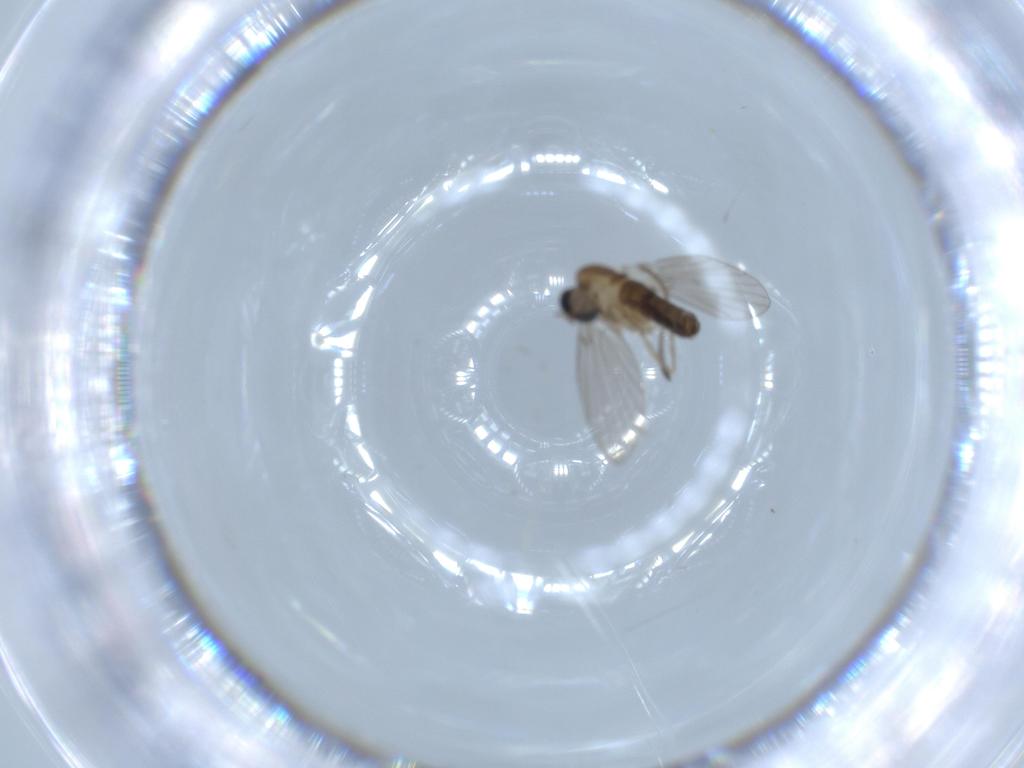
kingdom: Animalia
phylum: Arthropoda
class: Insecta
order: Diptera
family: Psychodidae
